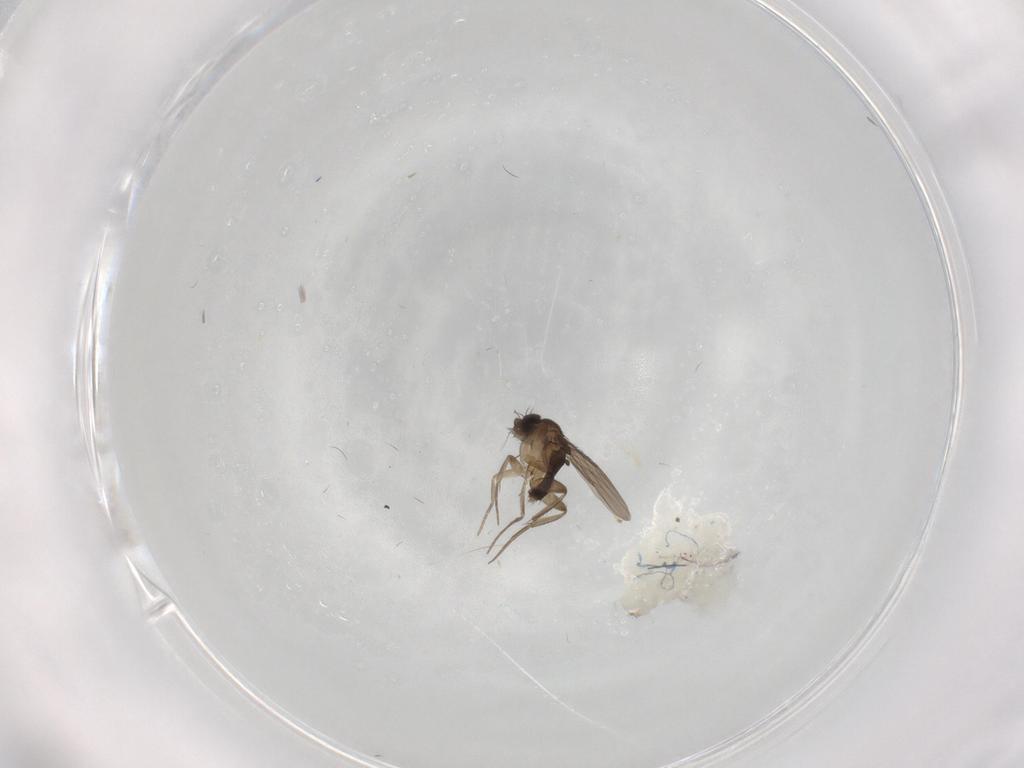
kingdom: Animalia
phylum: Arthropoda
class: Insecta
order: Diptera
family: Phoridae
